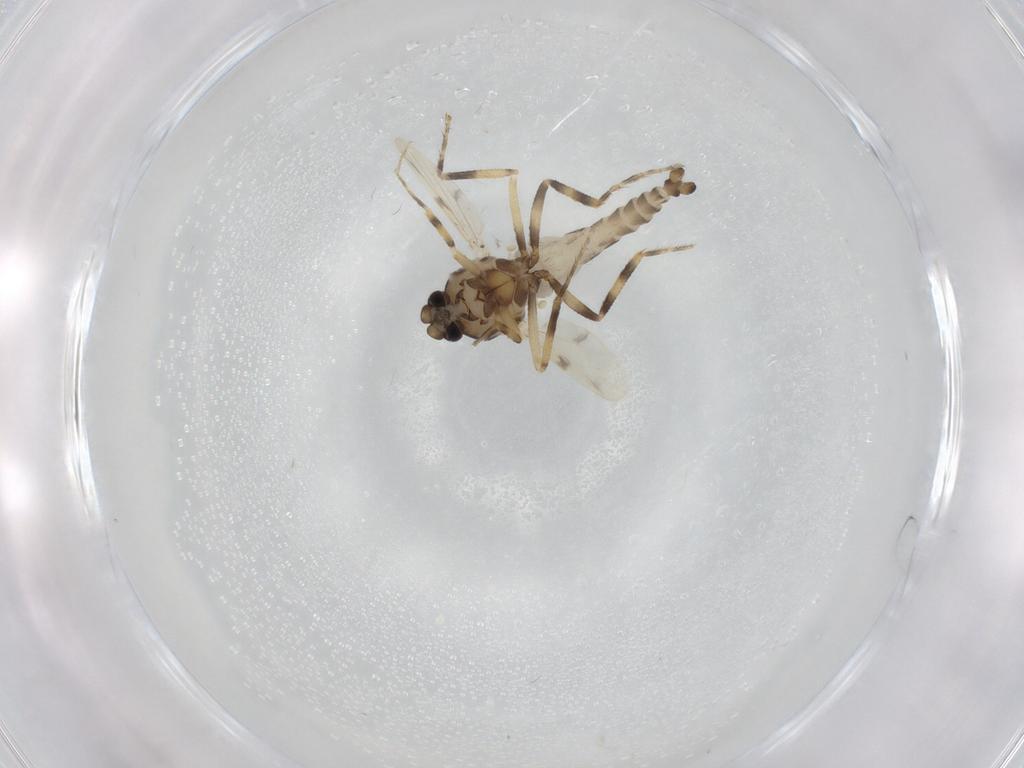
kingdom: Animalia
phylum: Arthropoda
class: Insecta
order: Diptera
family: Ceratopogonidae
